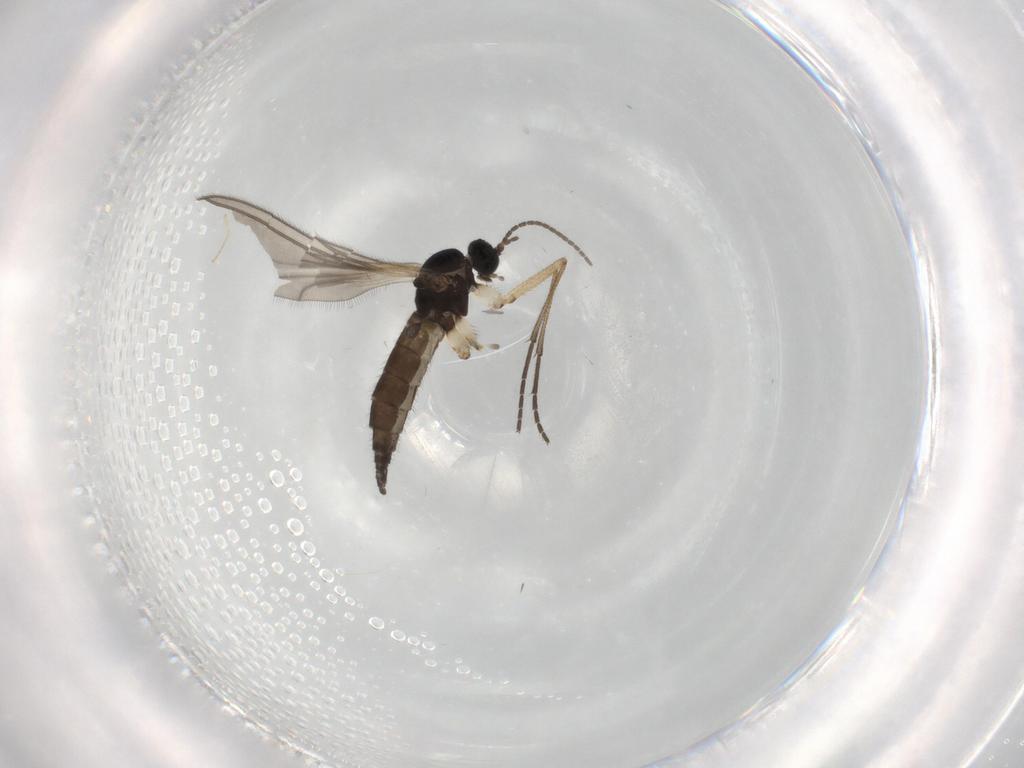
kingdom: Animalia
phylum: Arthropoda
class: Insecta
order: Diptera
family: Sciaridae
